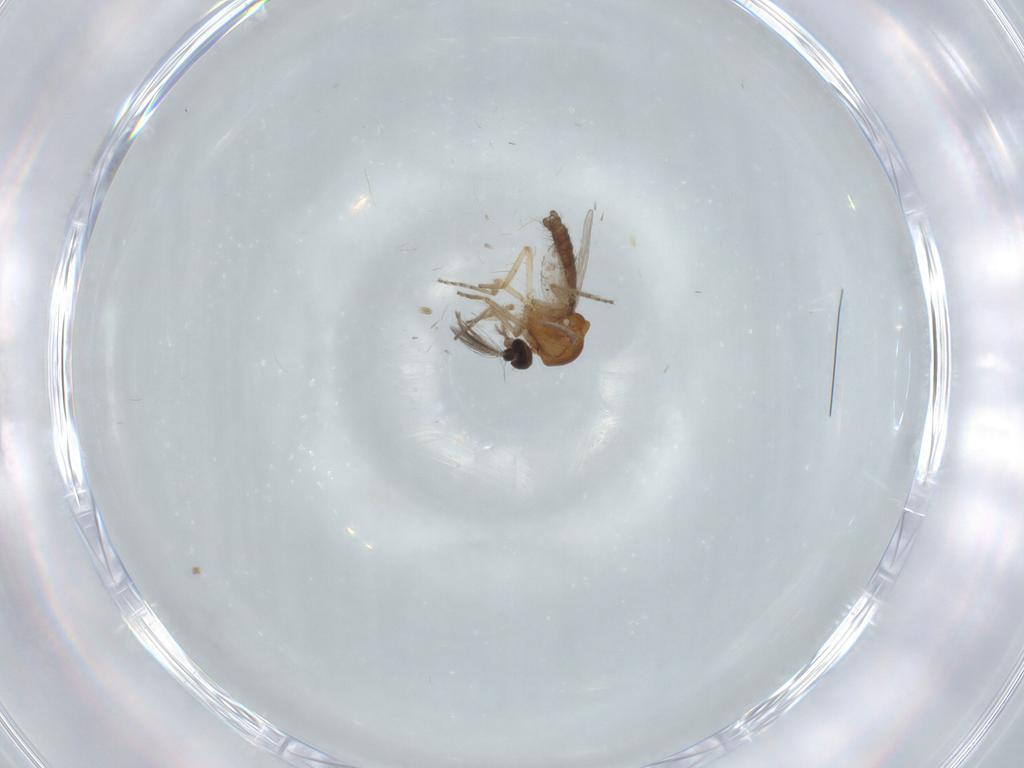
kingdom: Animalia
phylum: Arthropoda
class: Insecta
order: Diptera
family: Ceratopogonidae
